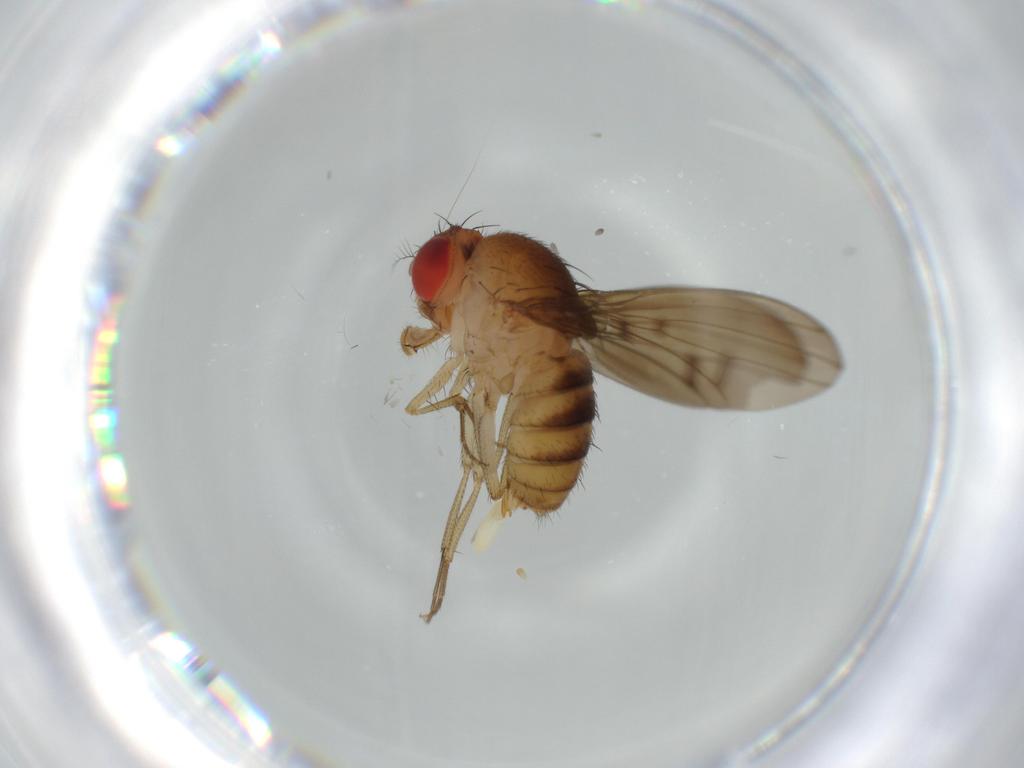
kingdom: Animalia
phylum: Arthropoda
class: Insecta
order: Diptera
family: Drosophilidae
